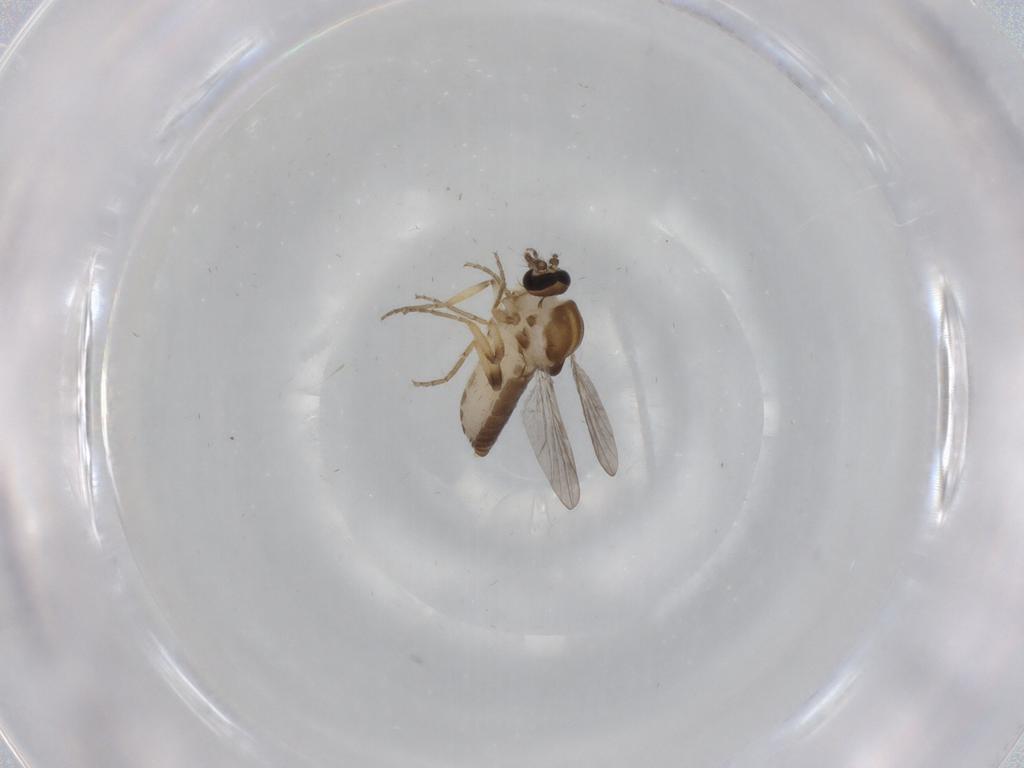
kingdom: Animalia
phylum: Arthropoda
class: Insecta
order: Diptera
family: Ceratopogonidae
